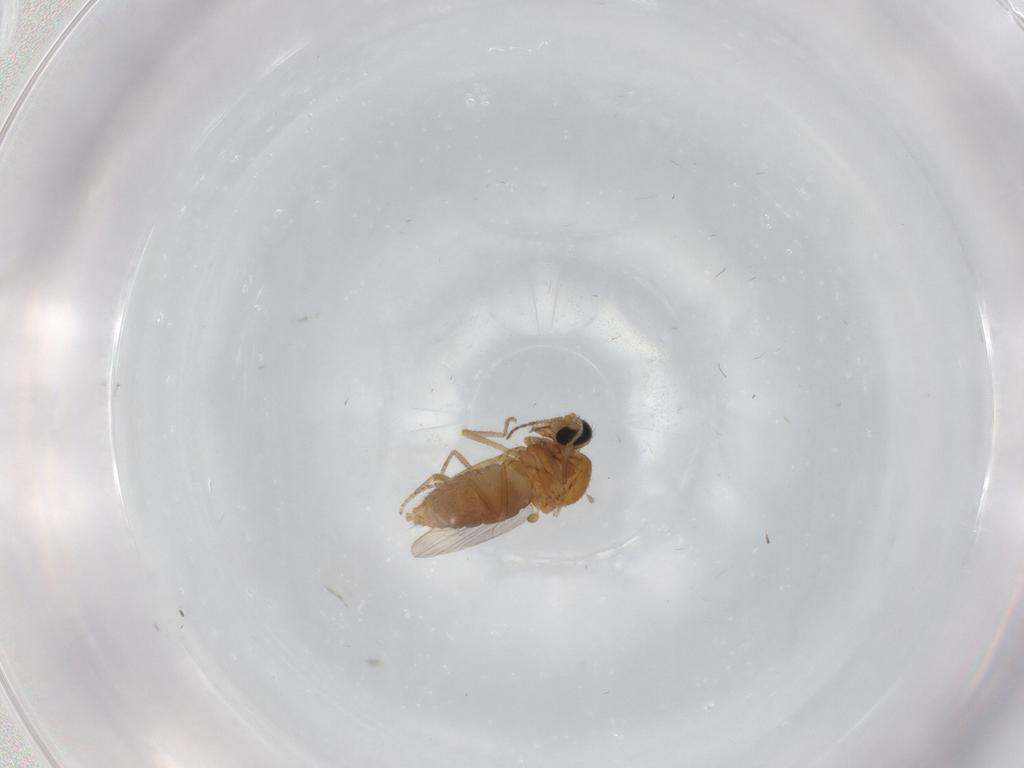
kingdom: Animalia
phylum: Arthropoda
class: Insecta
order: Diptera
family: Ceratopogonidae
